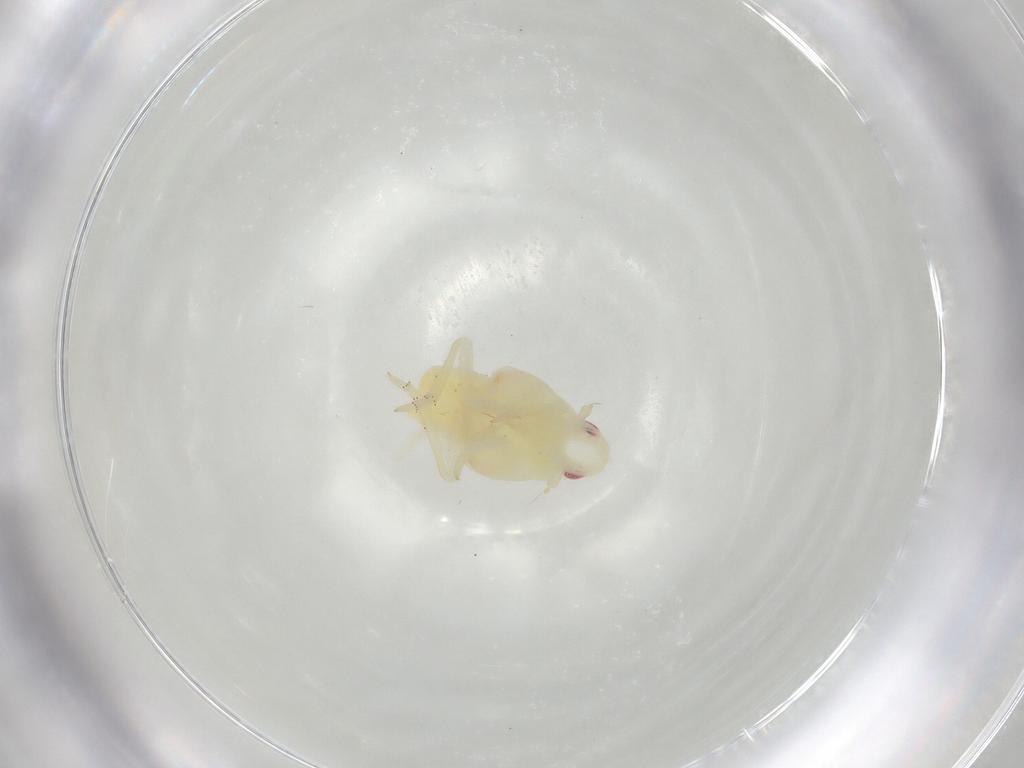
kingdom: Animalia
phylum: Arthropoda
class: Insecta
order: Hemiptera
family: Flatidae
